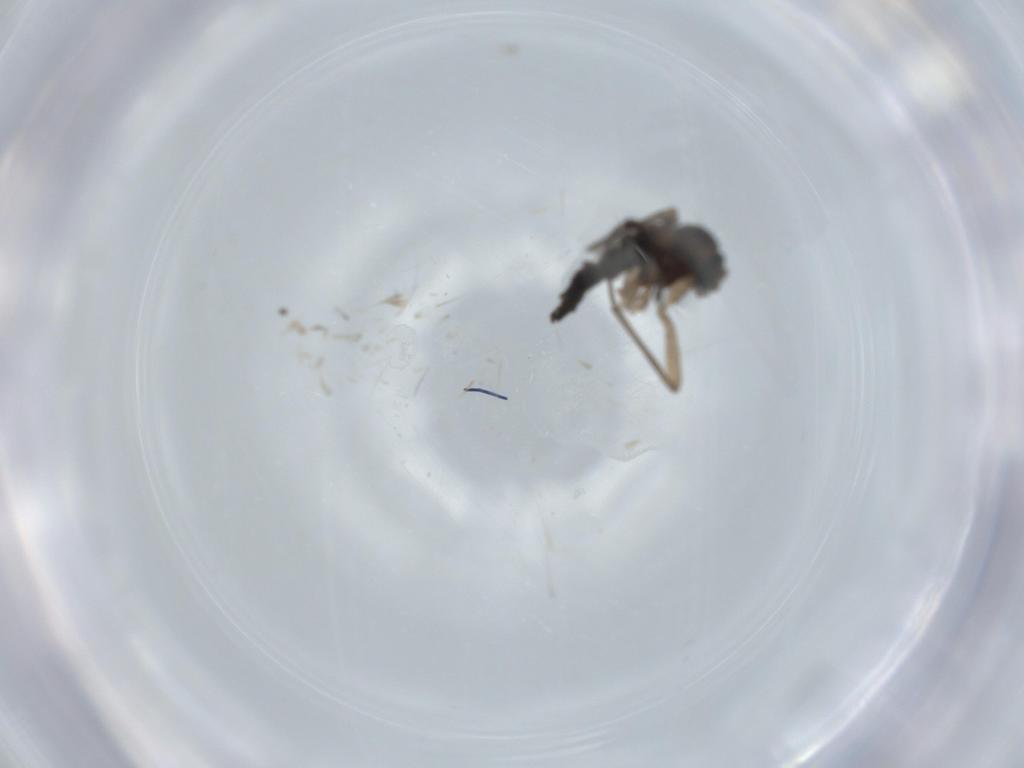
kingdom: Animalia
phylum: Arthropoda
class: Insecta
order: Diptera
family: Sciaridae
